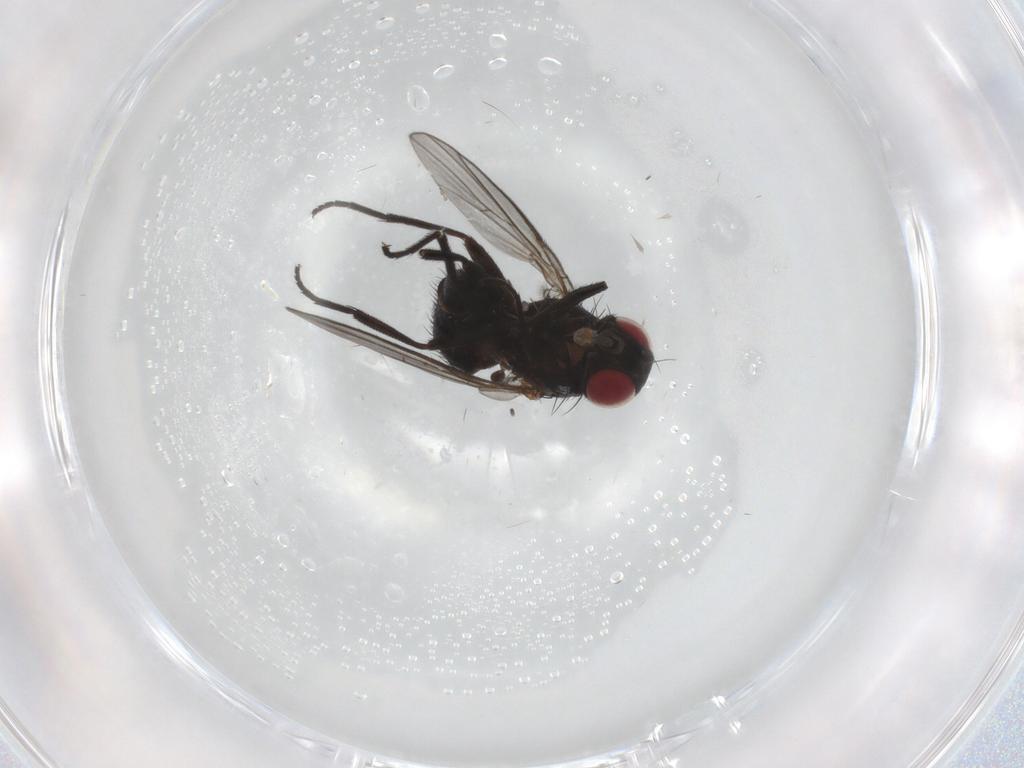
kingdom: Animalia
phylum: Arthropoda
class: Insecta
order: Diptera
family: Agromyzidae
